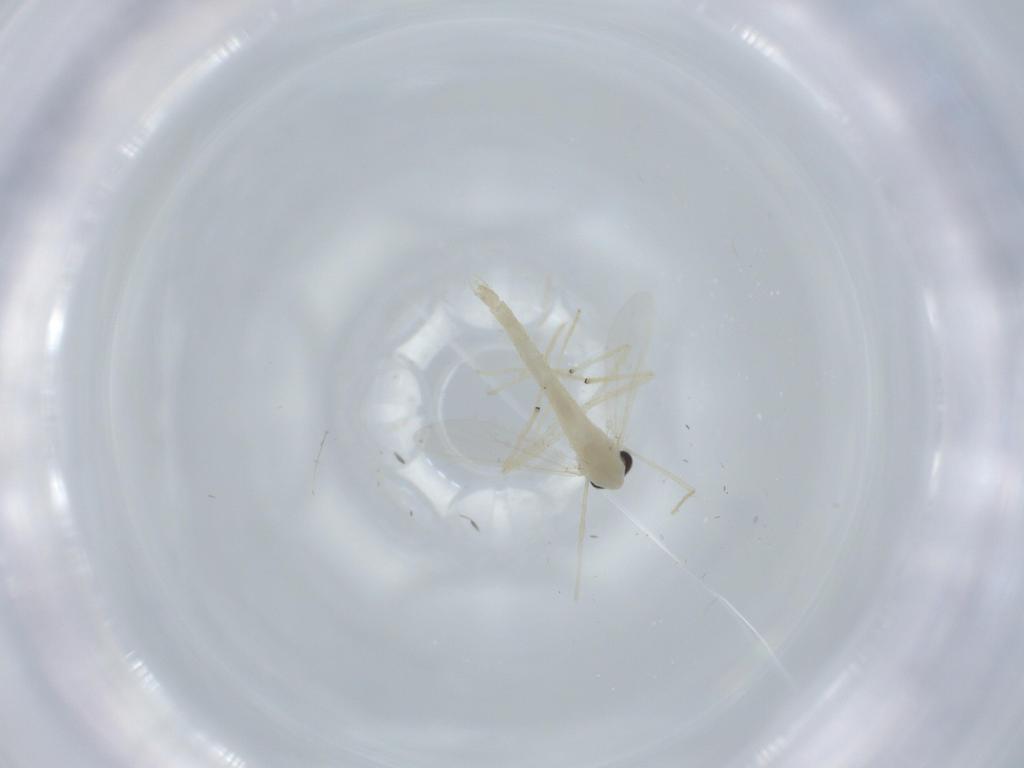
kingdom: Animalia
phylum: Arthropoda
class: Insecta
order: Diptera
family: Chironomidae
